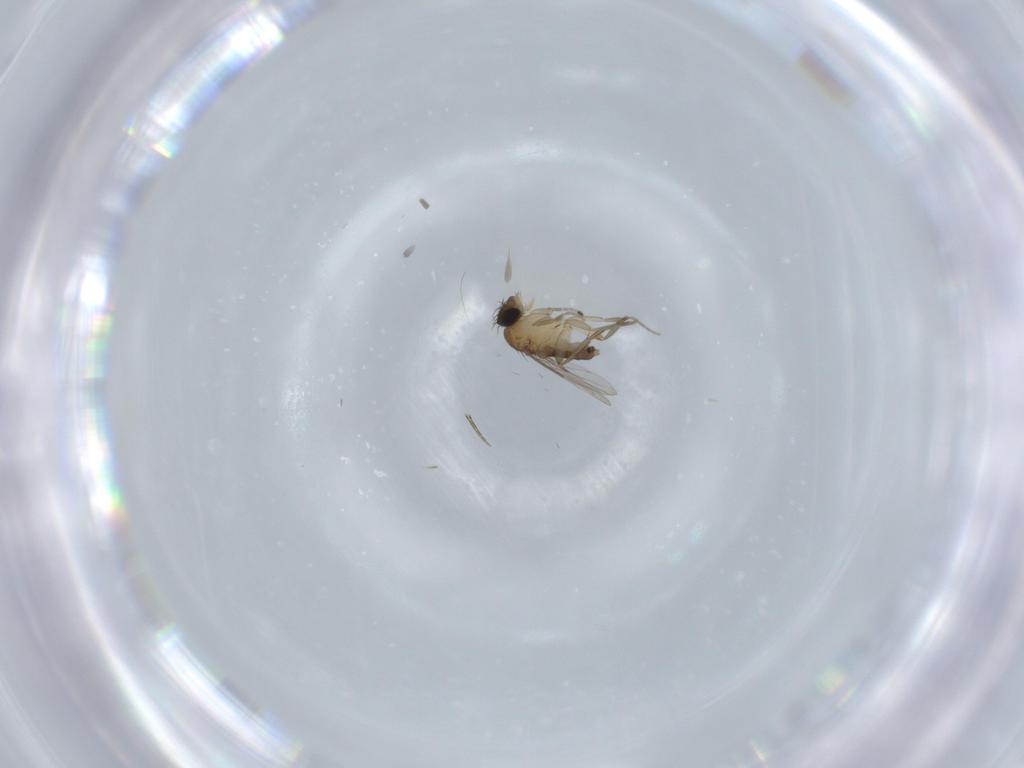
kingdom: Animalia
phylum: Arthropoda
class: Insecta
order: Diptera
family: Phoridae
